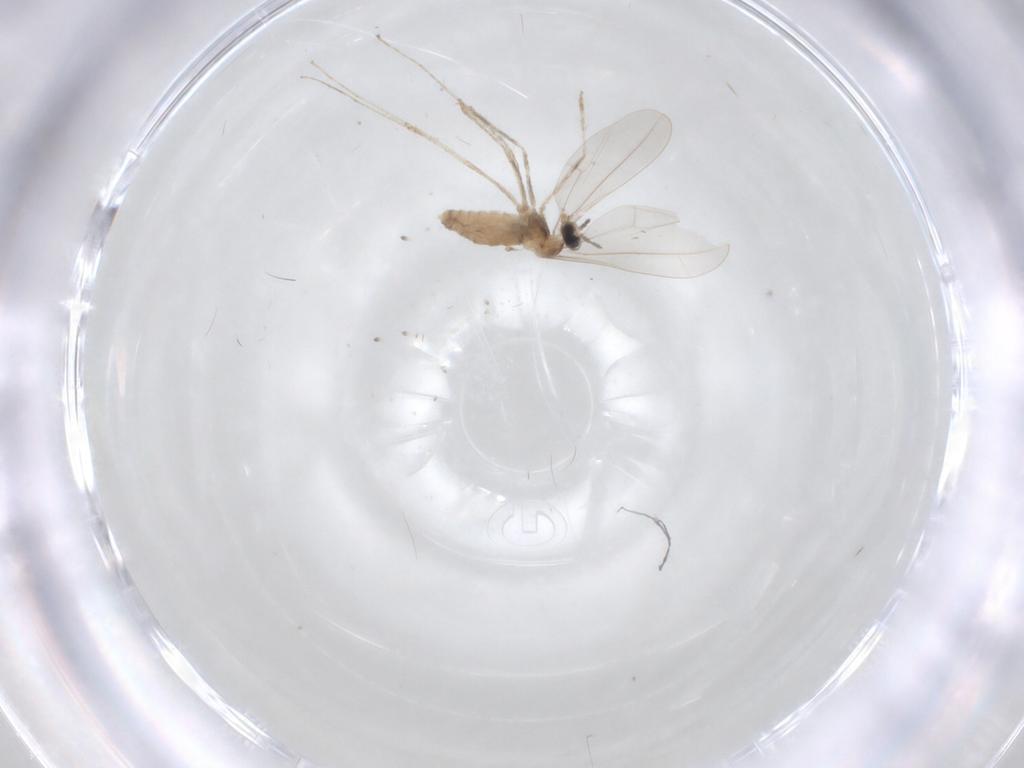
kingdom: Animalia
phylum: Arthropoda
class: Insecta
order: Diptera
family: Cecidomyiidae
